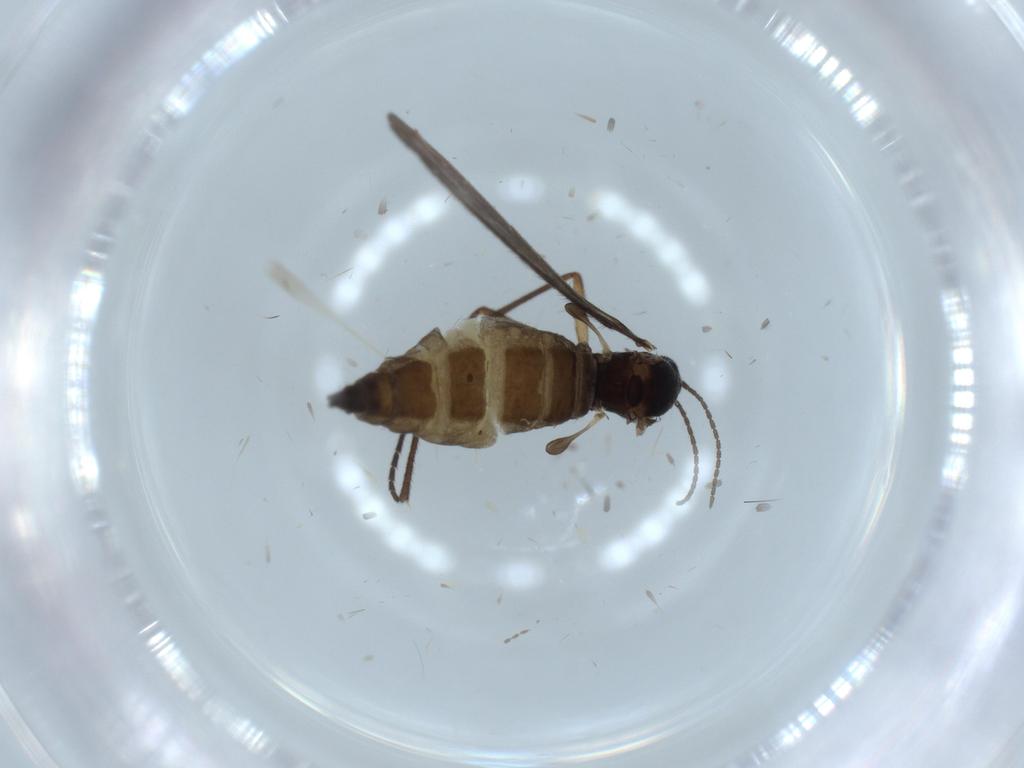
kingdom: Animalia
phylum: Arthropoda
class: Insecta
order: Diptera
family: Sciaridae
